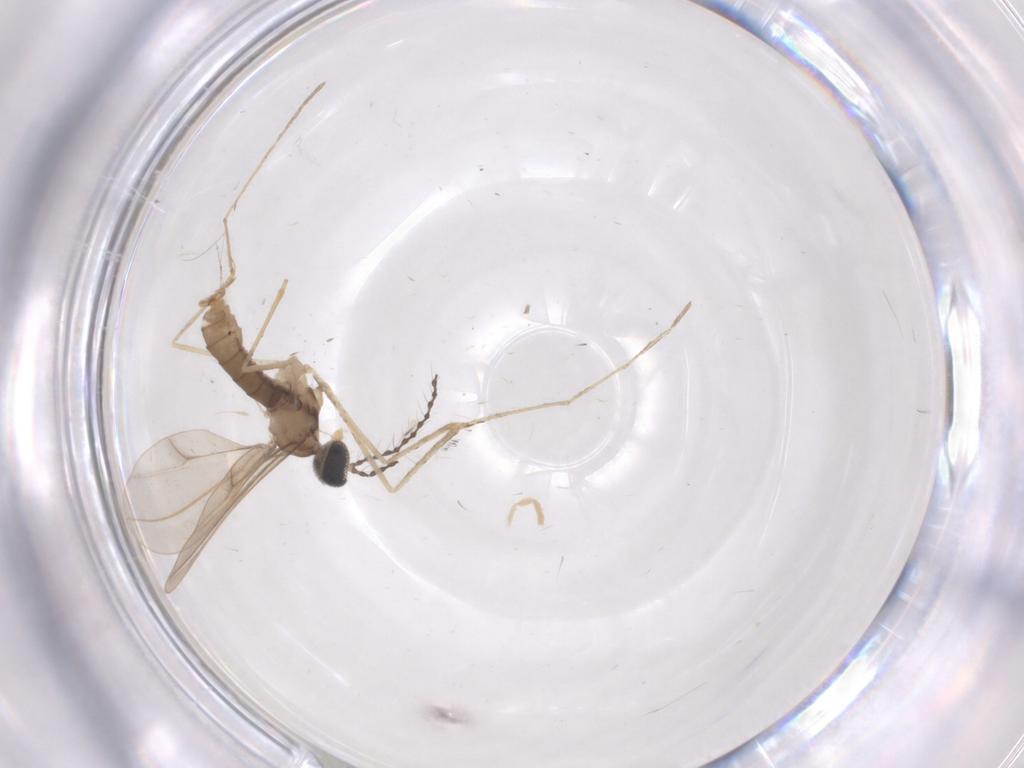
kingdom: Animalia
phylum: Arthropoda
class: Insecta
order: Diptera
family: Cecidomyiidae
